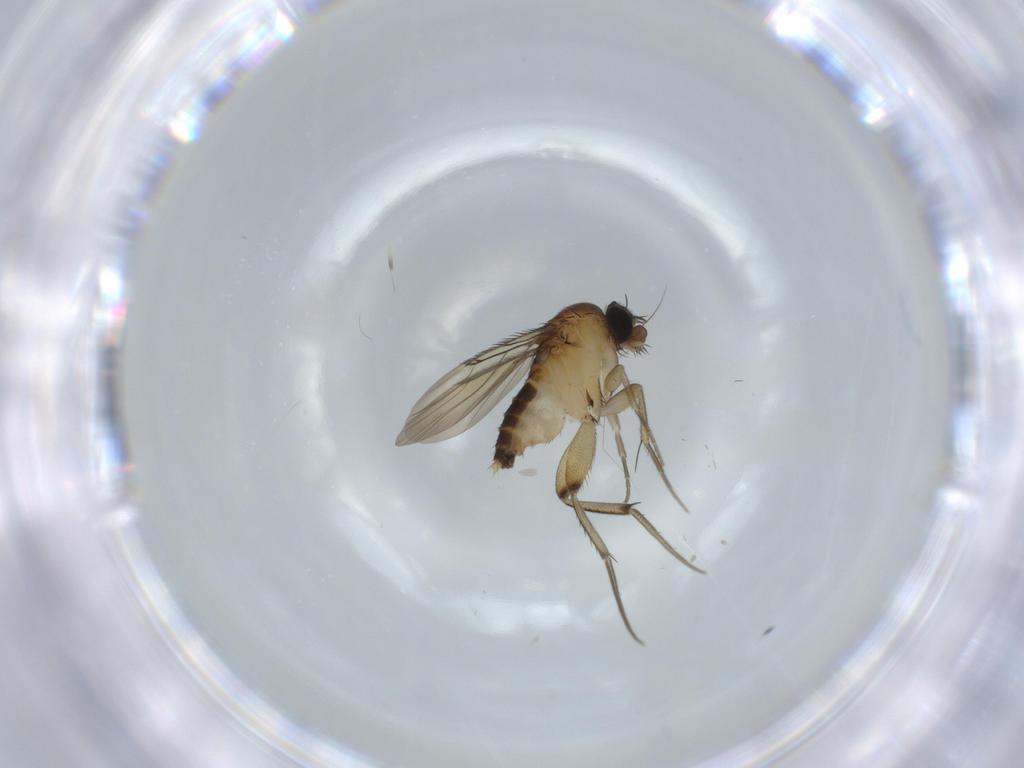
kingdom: Animalia
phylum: Arthropoda
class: Insecta
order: Diptera
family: Phoridae
